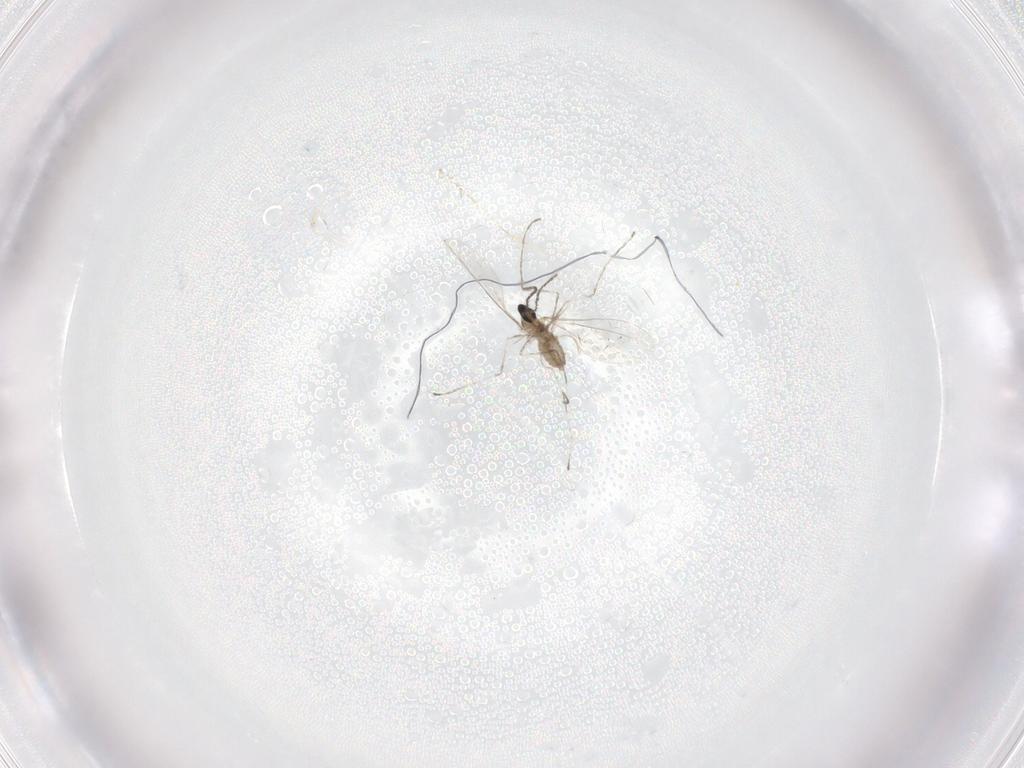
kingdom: Animalia
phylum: Arthropoda
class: Insecta
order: Diptera
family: Cecidomyiidae
